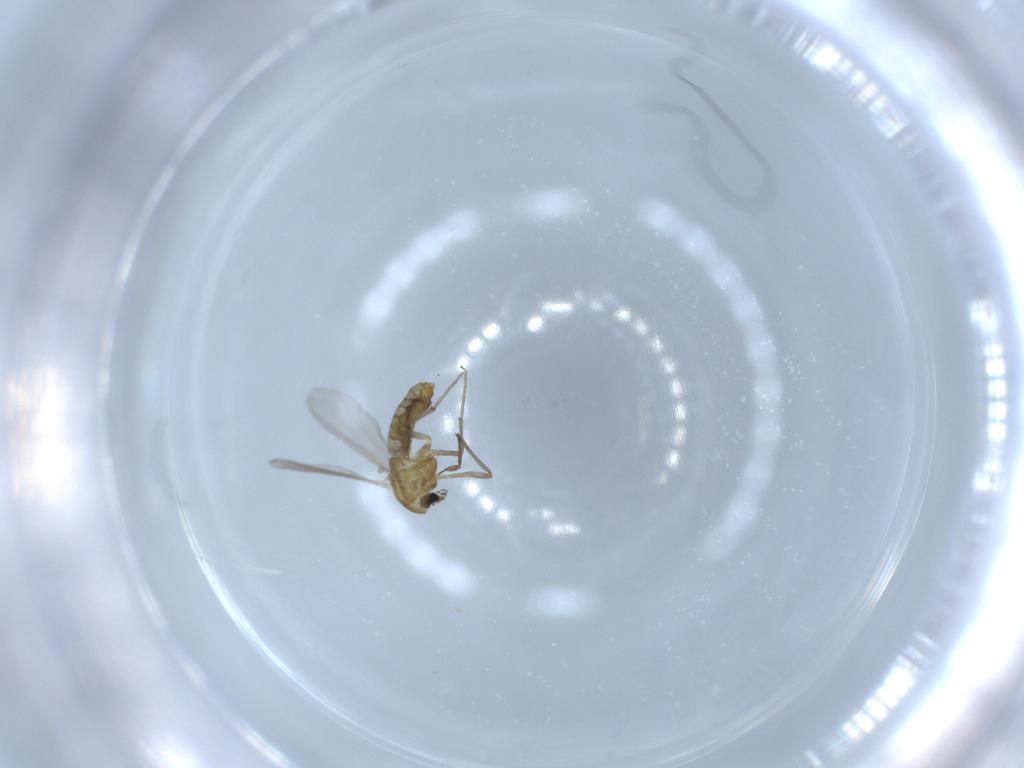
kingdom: Animalia
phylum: Arthropoda
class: Insecta
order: Diptera
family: Chironomidae
